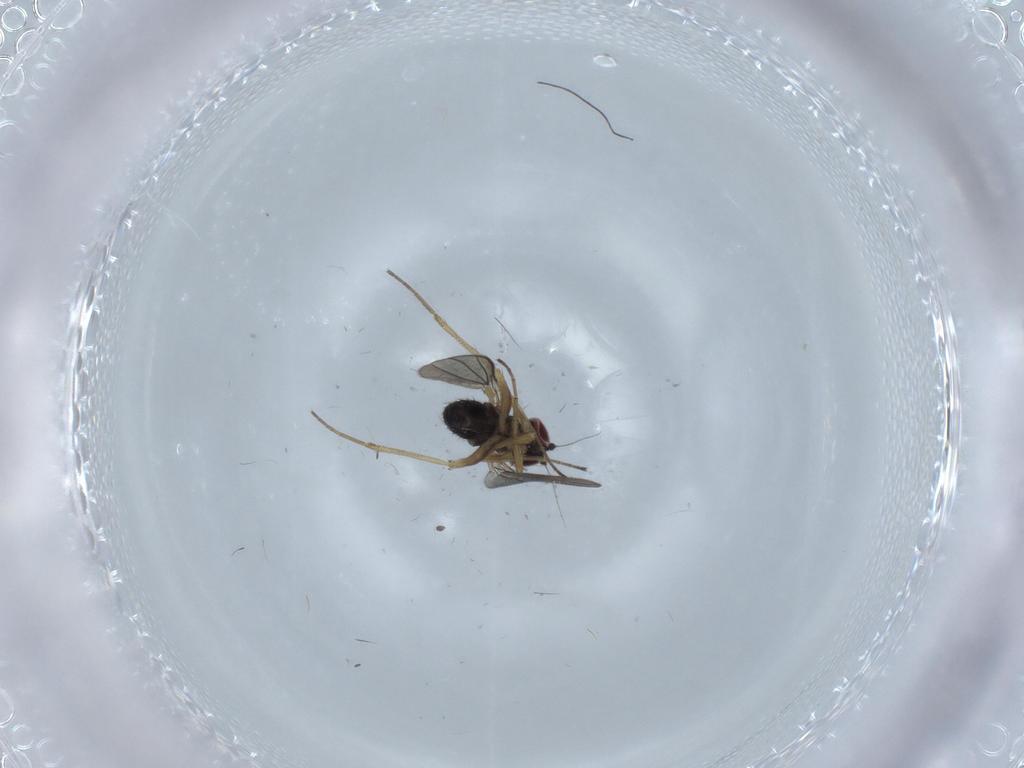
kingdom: Animalia
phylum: Arthropoda
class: Insecta
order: Diptera
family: Dolichopodidae
